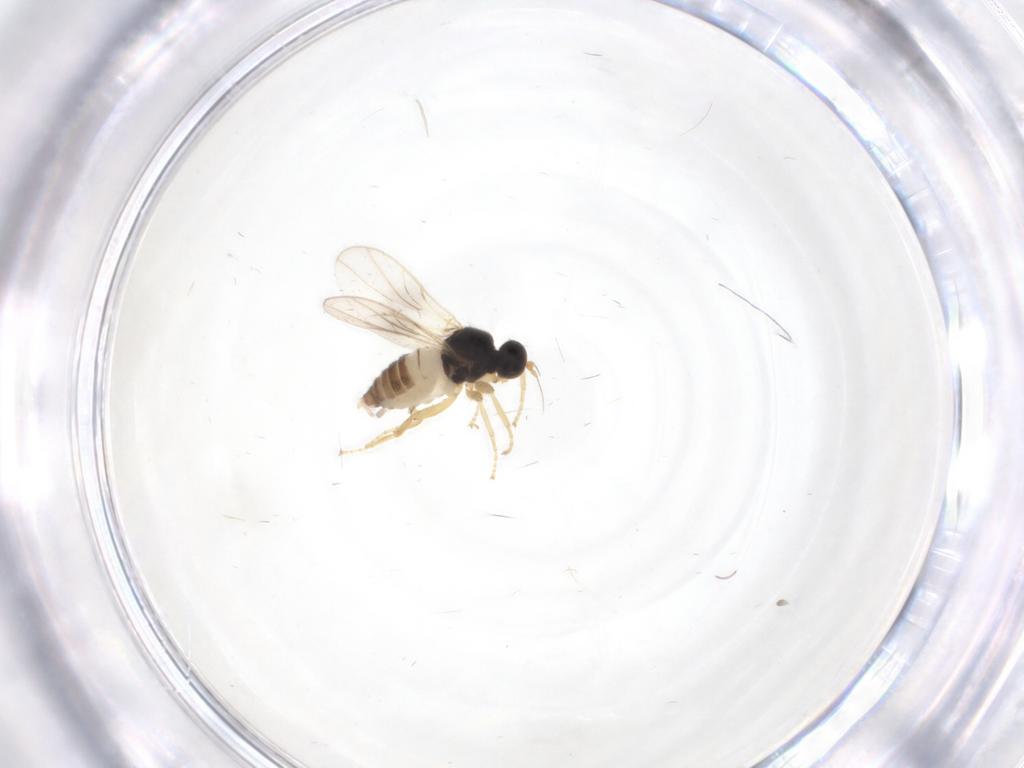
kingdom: Animalia
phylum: Arthropoda
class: Insecta
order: Diptera
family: Hybotidae
